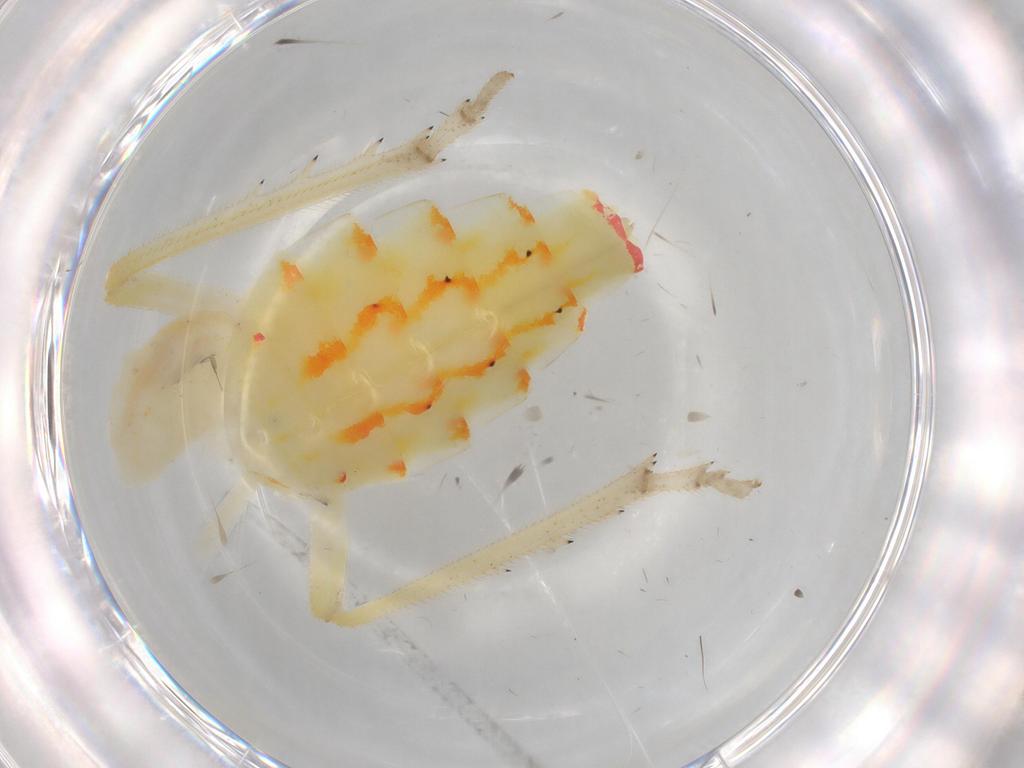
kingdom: Animalia
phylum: Arthropoda
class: Insecta
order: Hemiptera
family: Tropiduchidae
